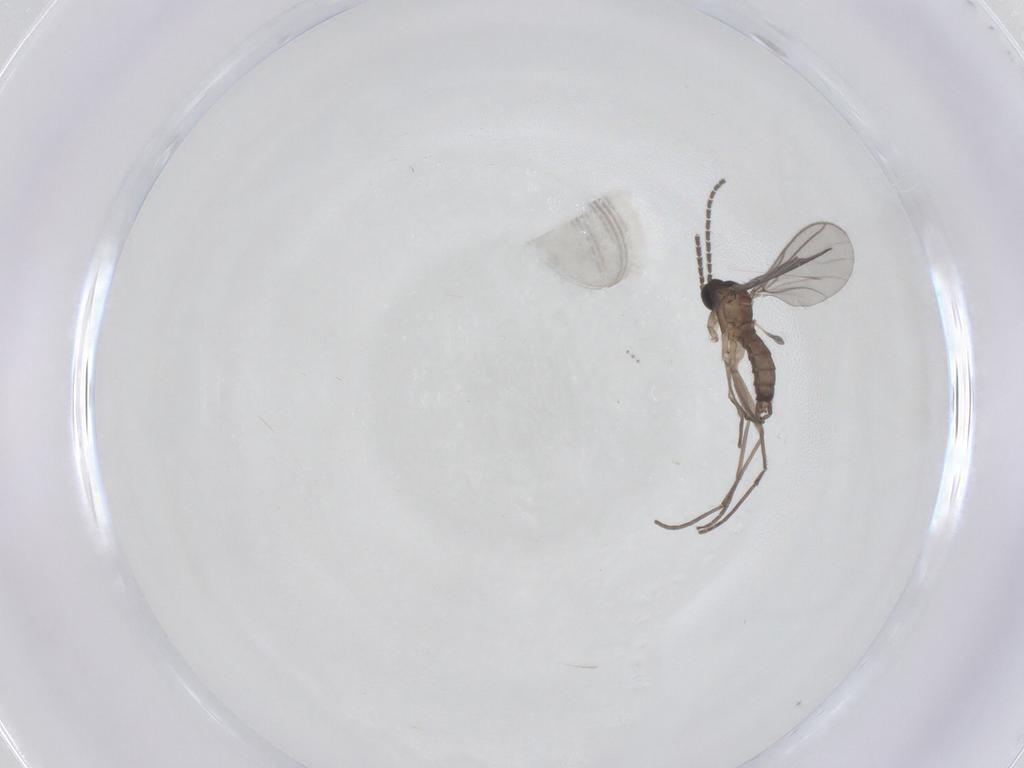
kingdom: Animalia
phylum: Arthropoda
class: Insecta
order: Diptera
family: Sciaridae
